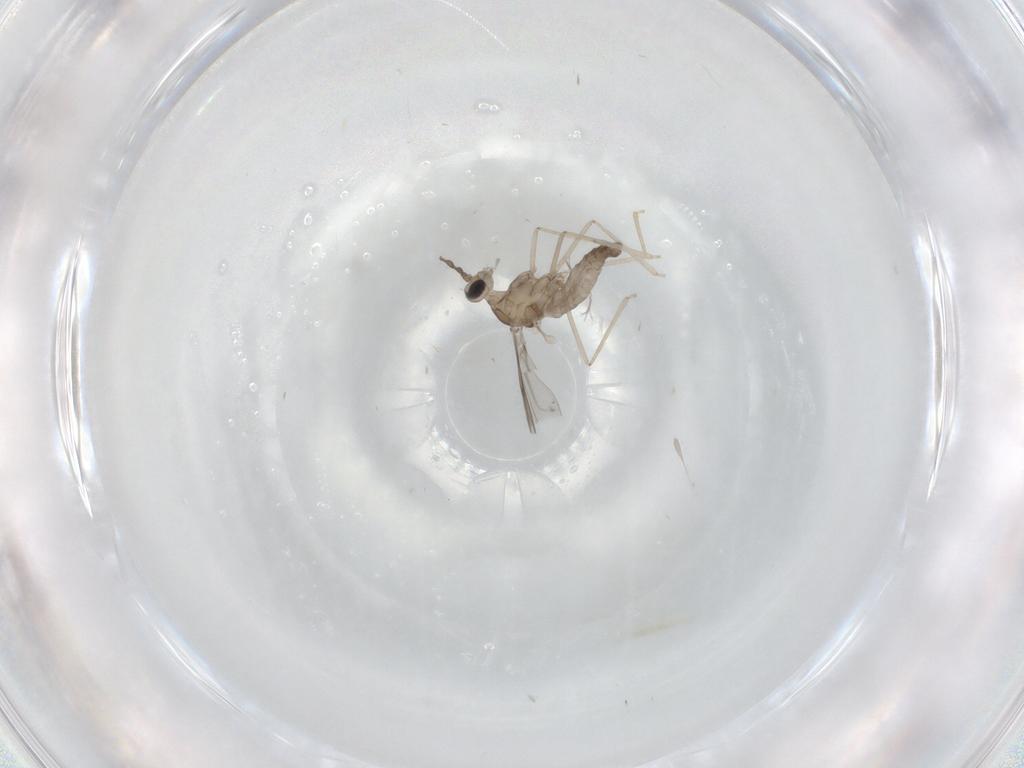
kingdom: Animalia
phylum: Arthropoda
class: Insecta
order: Diptera
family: Cecidomyiidae
